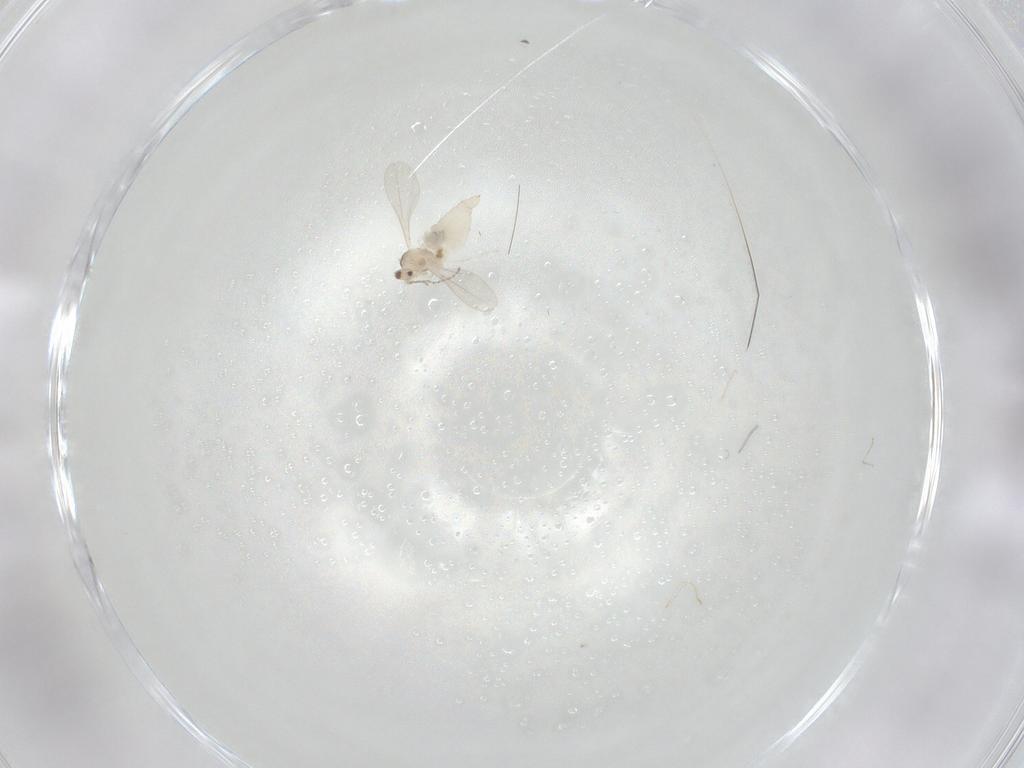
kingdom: Animalia
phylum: Arthropoda
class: Insecta
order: Diptera
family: Cecidomyiidae
